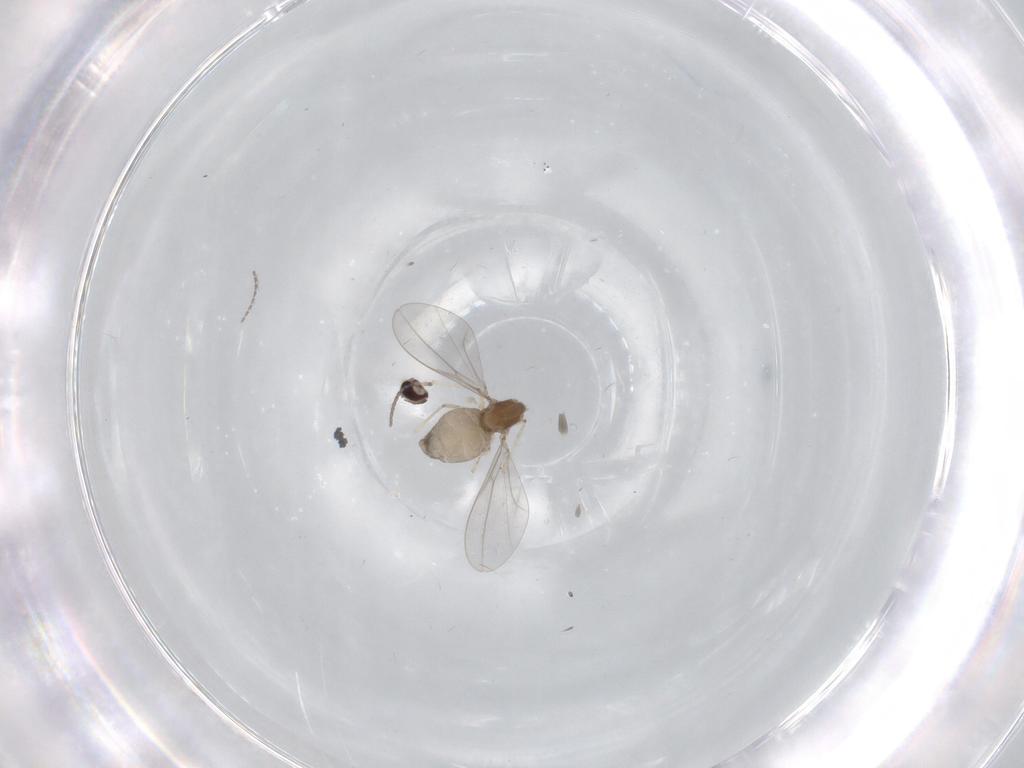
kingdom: Animalia
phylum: Arthropoda
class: Insecta
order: Diptera
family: Cecidomyiidae
